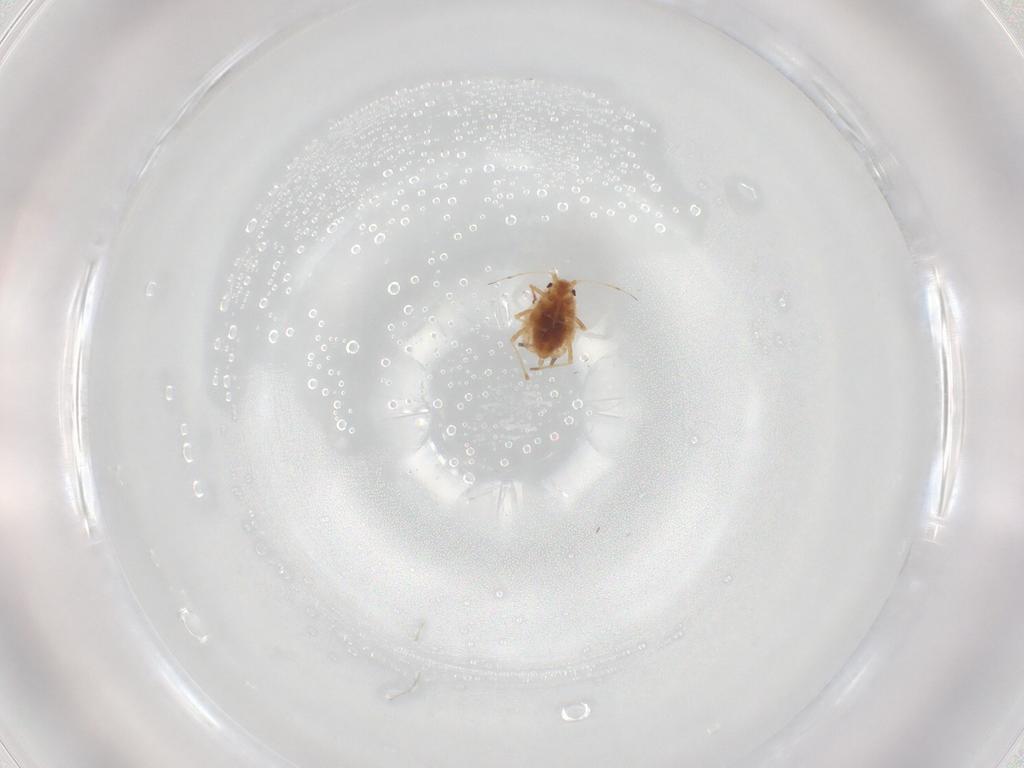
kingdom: Animalia
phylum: Arthropoda
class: Insecta
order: Hemiptera
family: Aphididae
